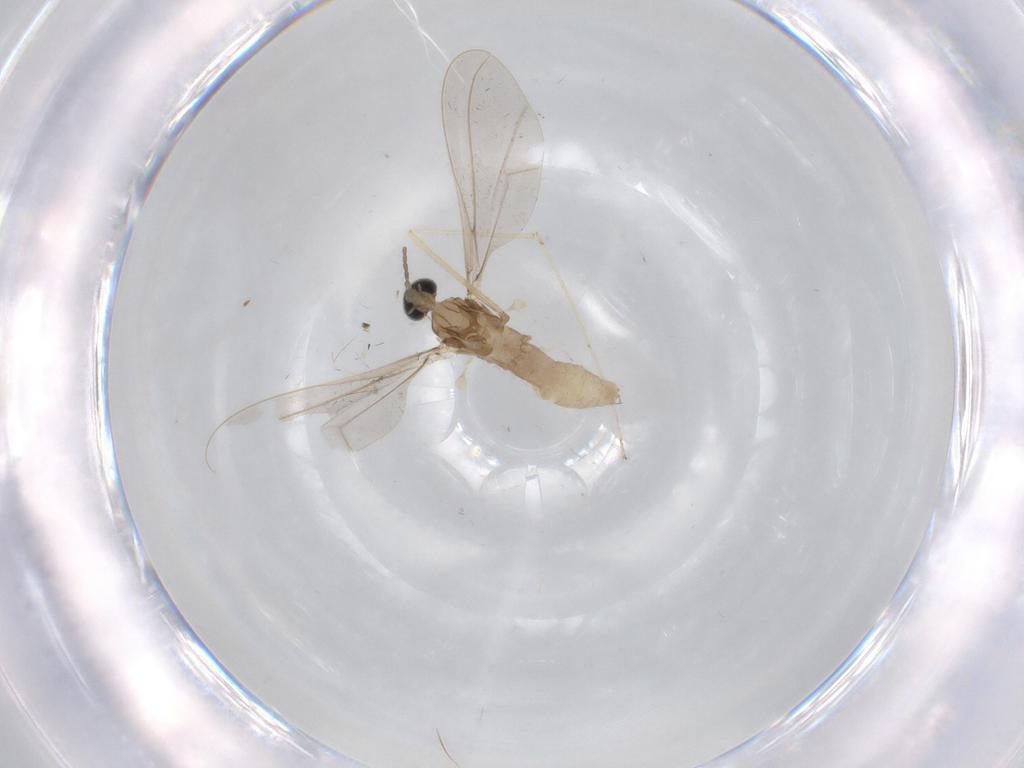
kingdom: Animalia
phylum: Arthropoda
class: Insecta
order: Diptera
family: Cecidomyiidae
